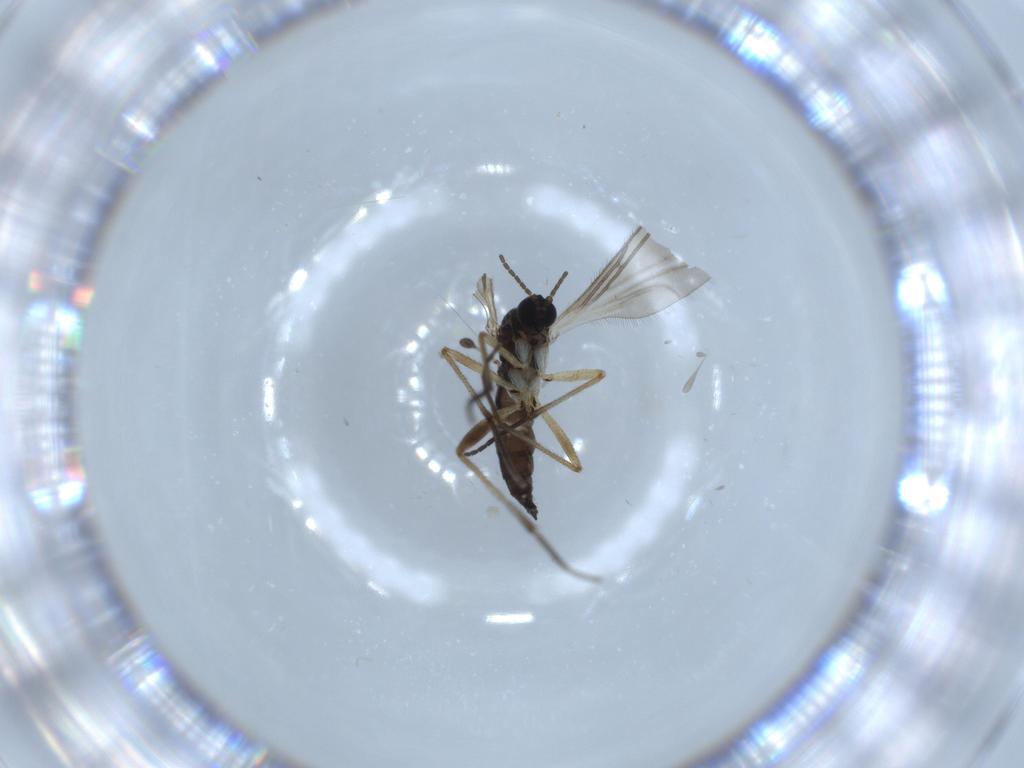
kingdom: Animalia
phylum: Arthropoda
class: Insecta
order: Diptera
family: Sciaridae
